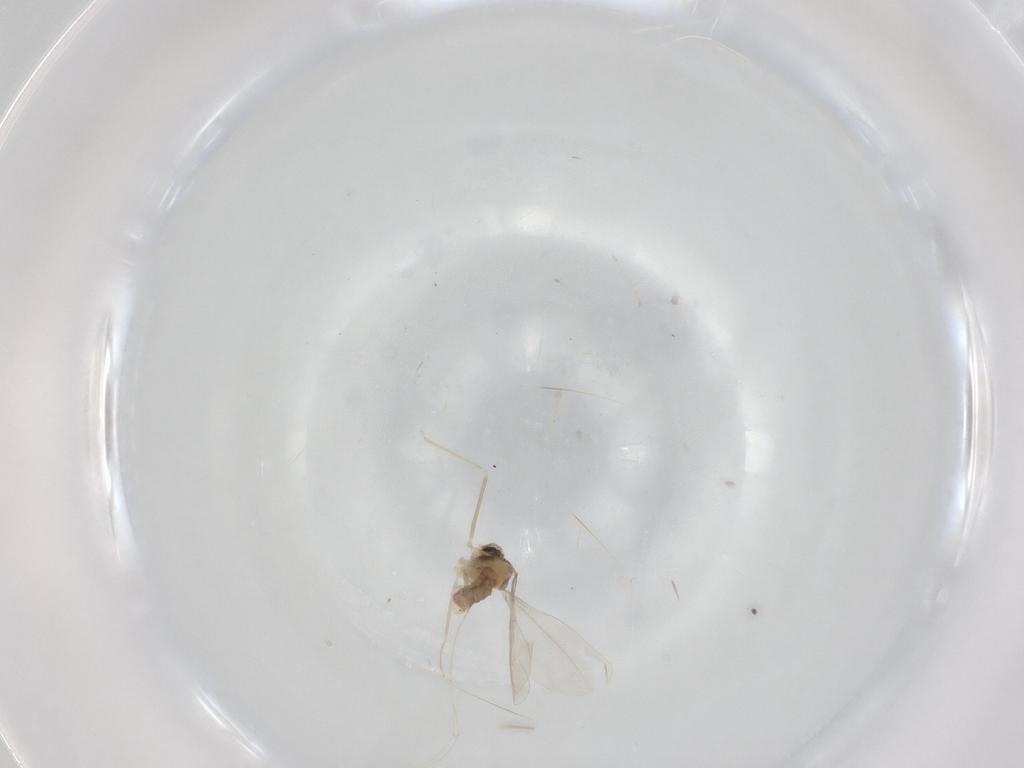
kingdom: Animalia
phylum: Arthropoda
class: Insecta
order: Diptera
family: Cecidomyiidae
